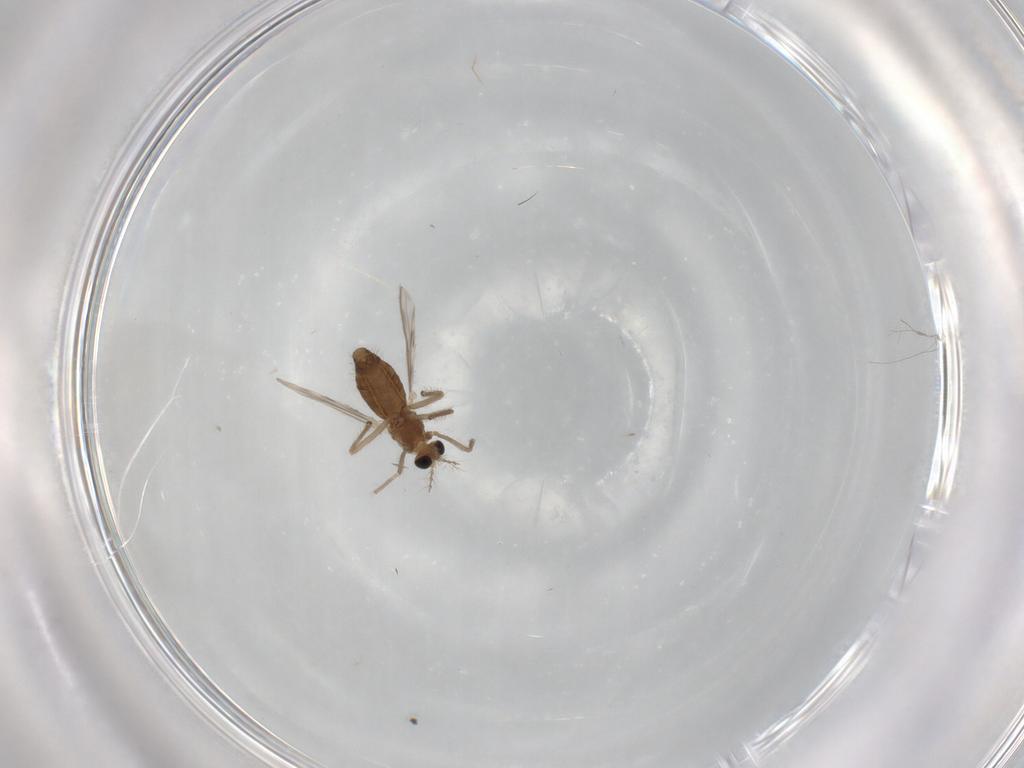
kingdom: Animalia
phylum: Arthropoda
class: Insecta
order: Diptera
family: Chironomidae
